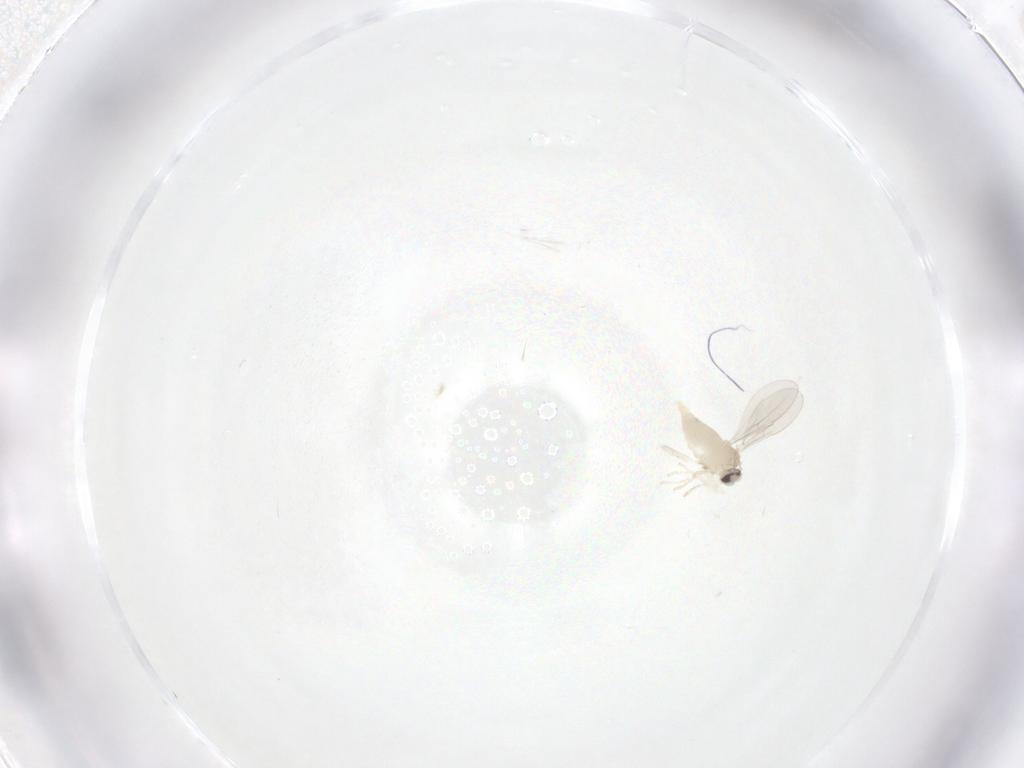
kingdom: Animalia
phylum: Arthropoda
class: Insecta
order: Diptera
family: Cecidomyiidae
